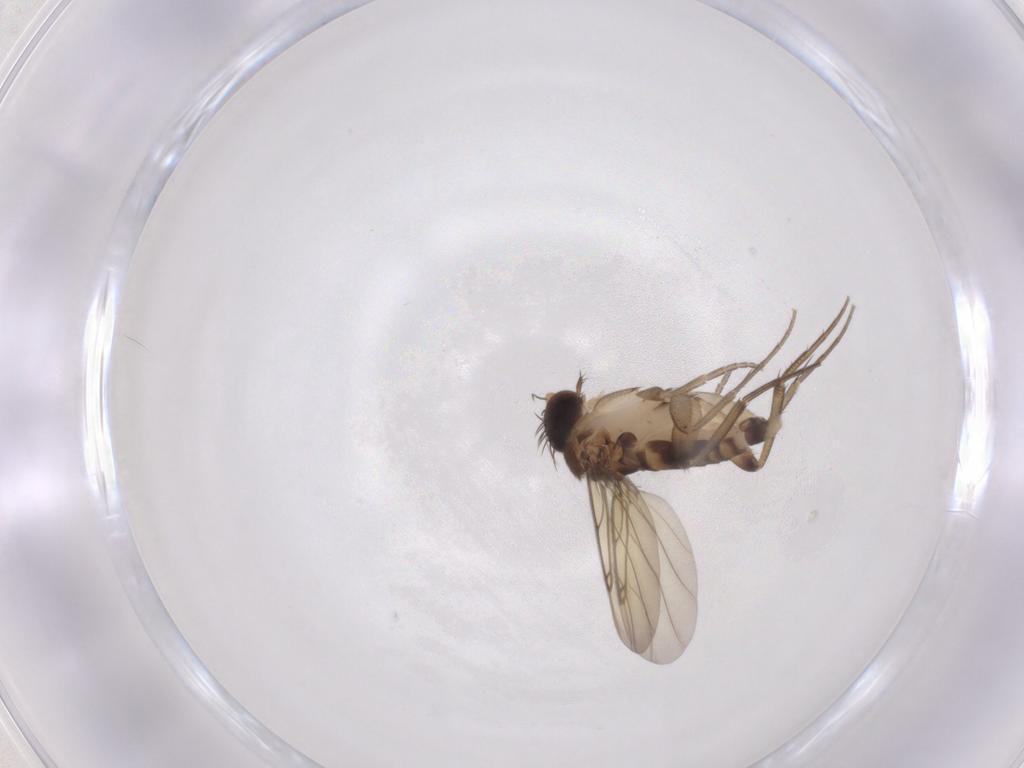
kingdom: Animalia
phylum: Arthropoda
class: Insecta
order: Diptera
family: Phoridae
